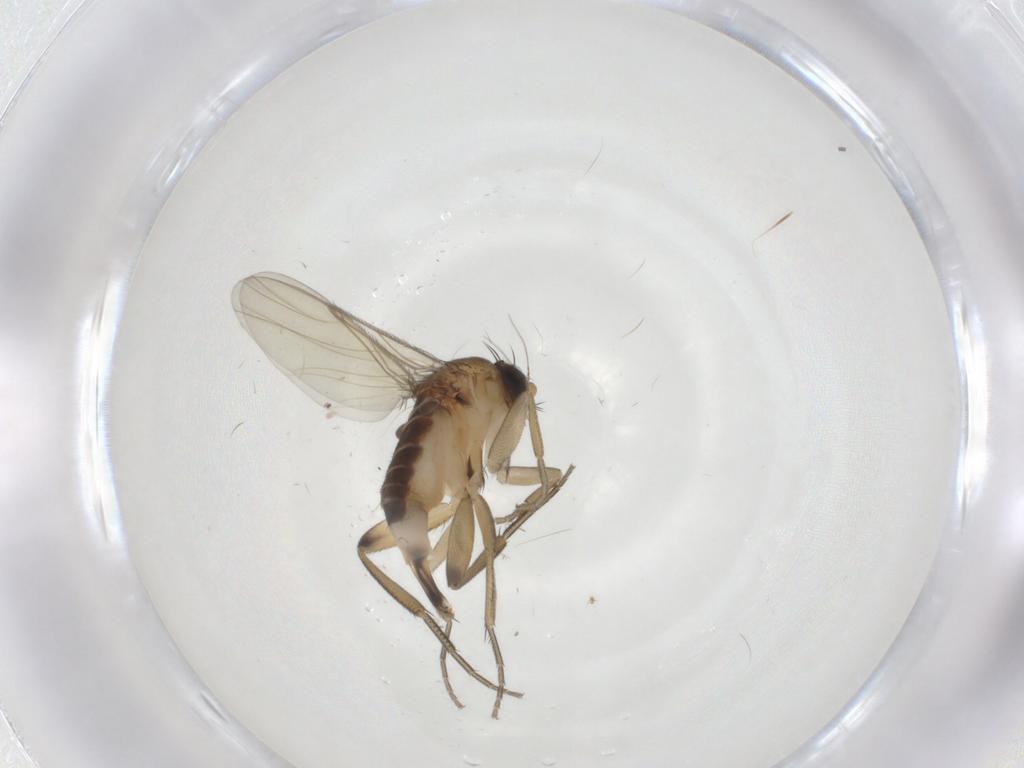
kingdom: Animalia
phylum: Arthropoda
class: Insecta
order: Diptera
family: Phoridae
